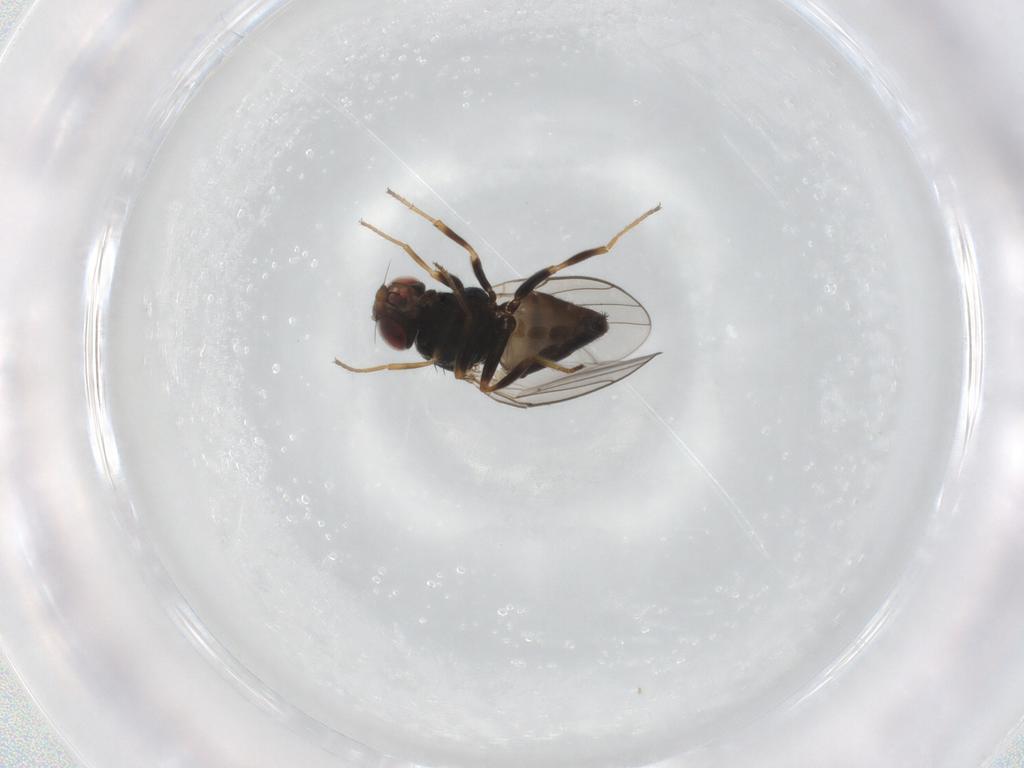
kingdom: Animalia
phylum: Arthropoda
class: Insecta
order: Diptera
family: Chloropidae
